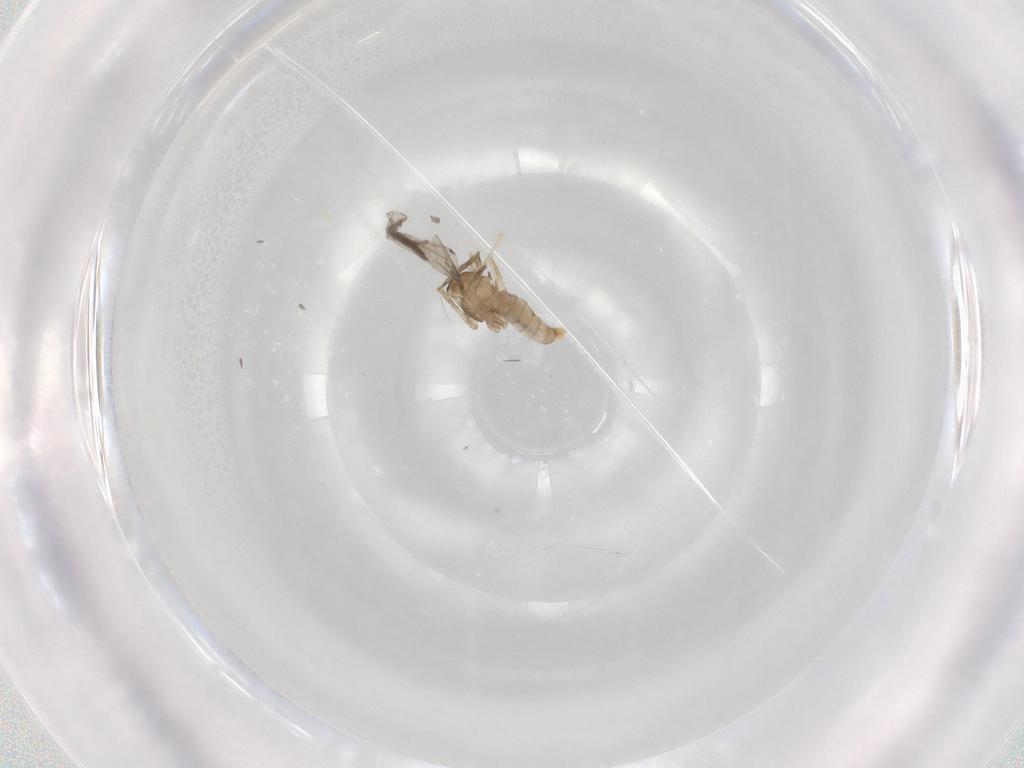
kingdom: Animalia
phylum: Arthropoda
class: Insecta
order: Diptera
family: Cecidomyiidae
